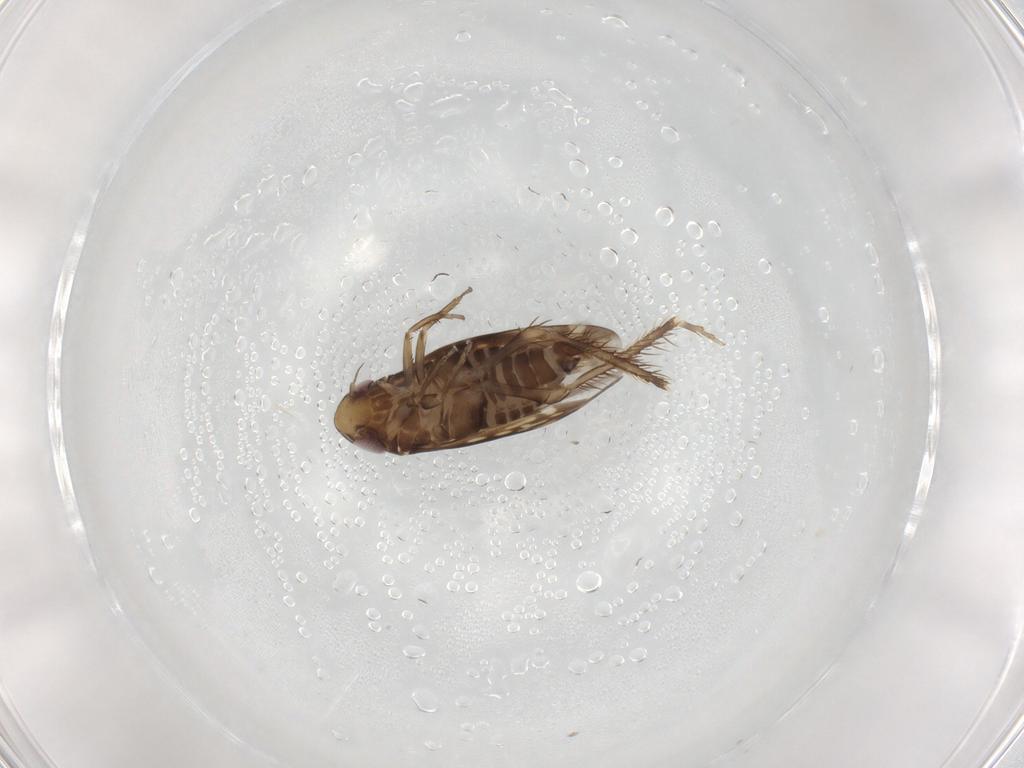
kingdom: Animalia
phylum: Arthropoda
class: Insecta
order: Hemiptera
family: Cicadellidae
